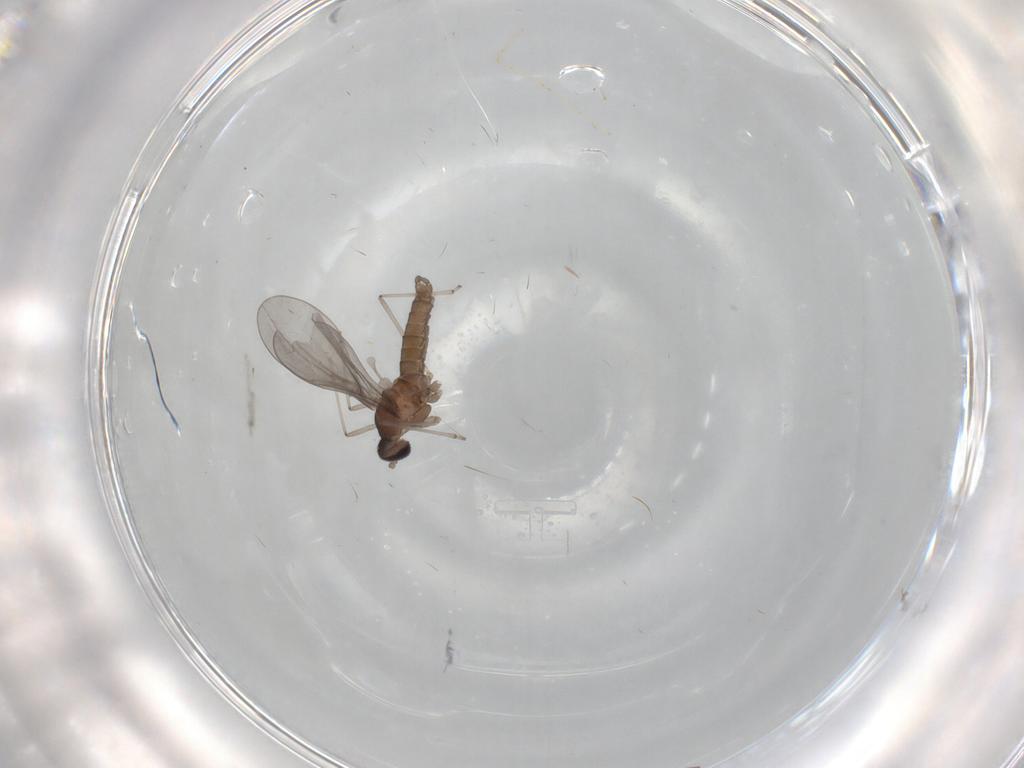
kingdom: Animalia
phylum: Arthropoda
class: Insecta
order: Diptera
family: Cecidomyiidae
